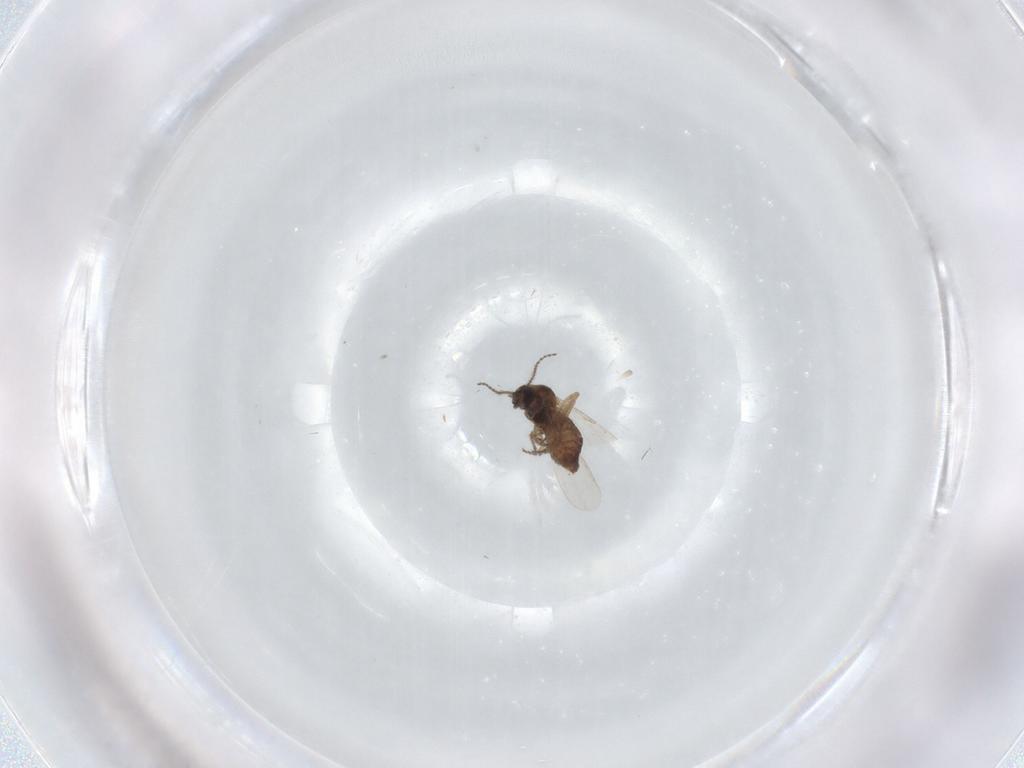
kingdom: Animalia
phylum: Arthropoda
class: Insecta
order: Diptera
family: Ceratopogonidae
